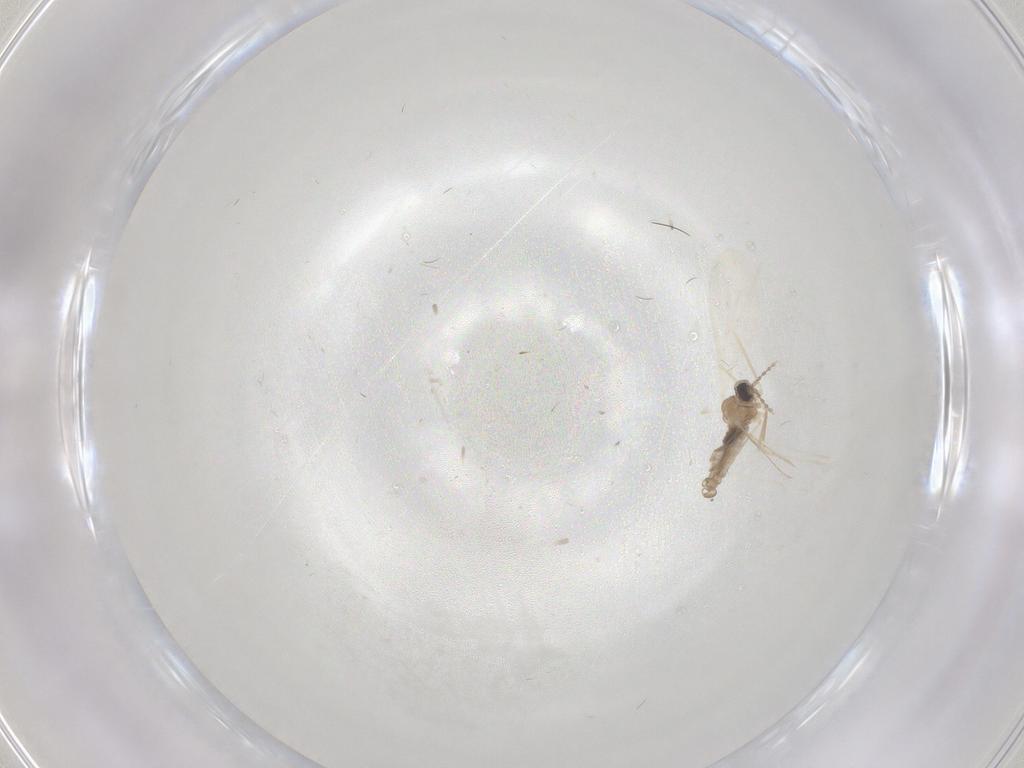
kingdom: Animalia
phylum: Arthropoda
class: Insecta
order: Diptera
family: Cecidomyiidae
